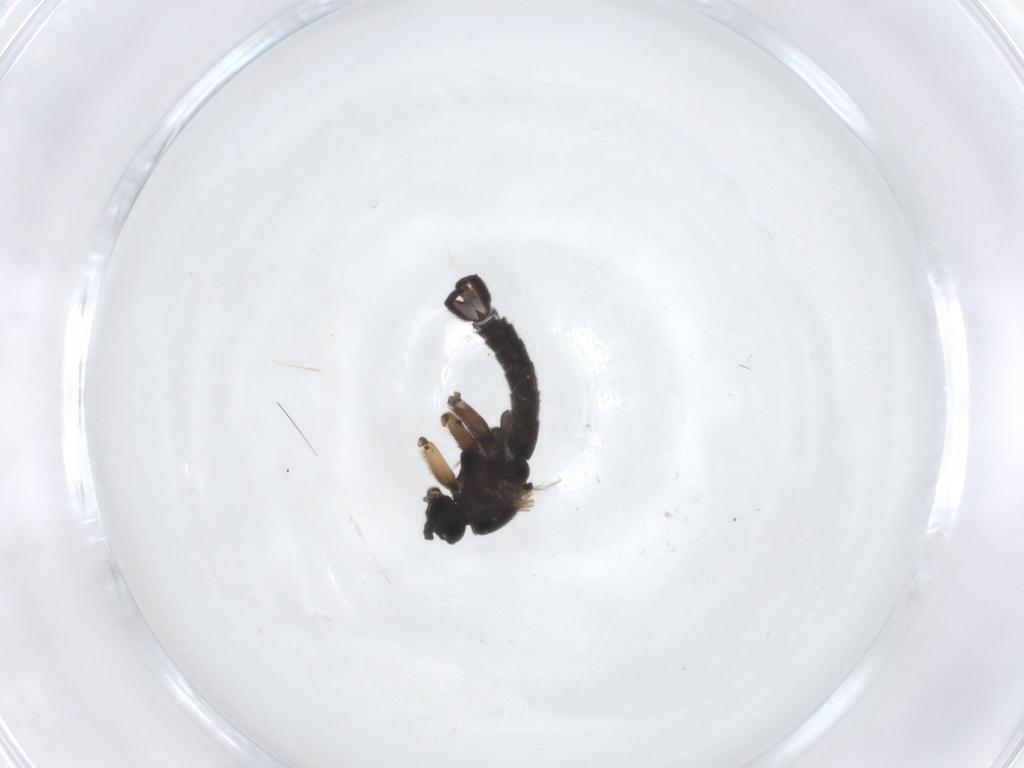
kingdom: Animalia
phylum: Arthropoda
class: Insecta
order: Diptera
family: Sciaridae
